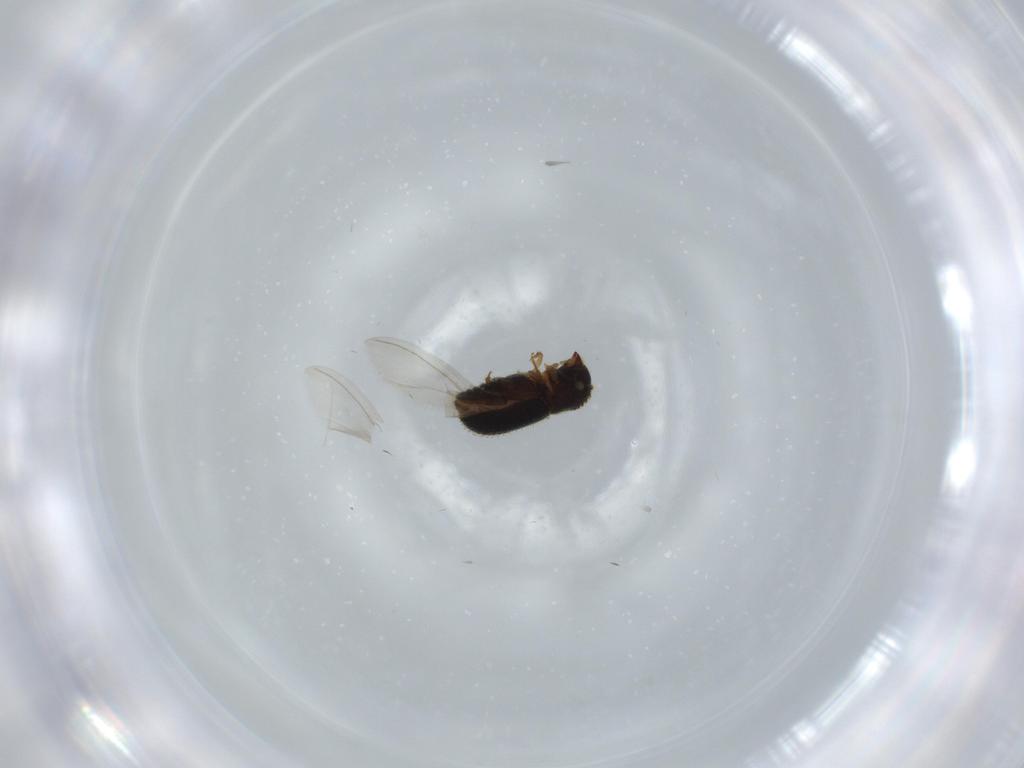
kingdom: Animalia
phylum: Arthropoda
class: Insecta
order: Coleoptera
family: Curculionidae
